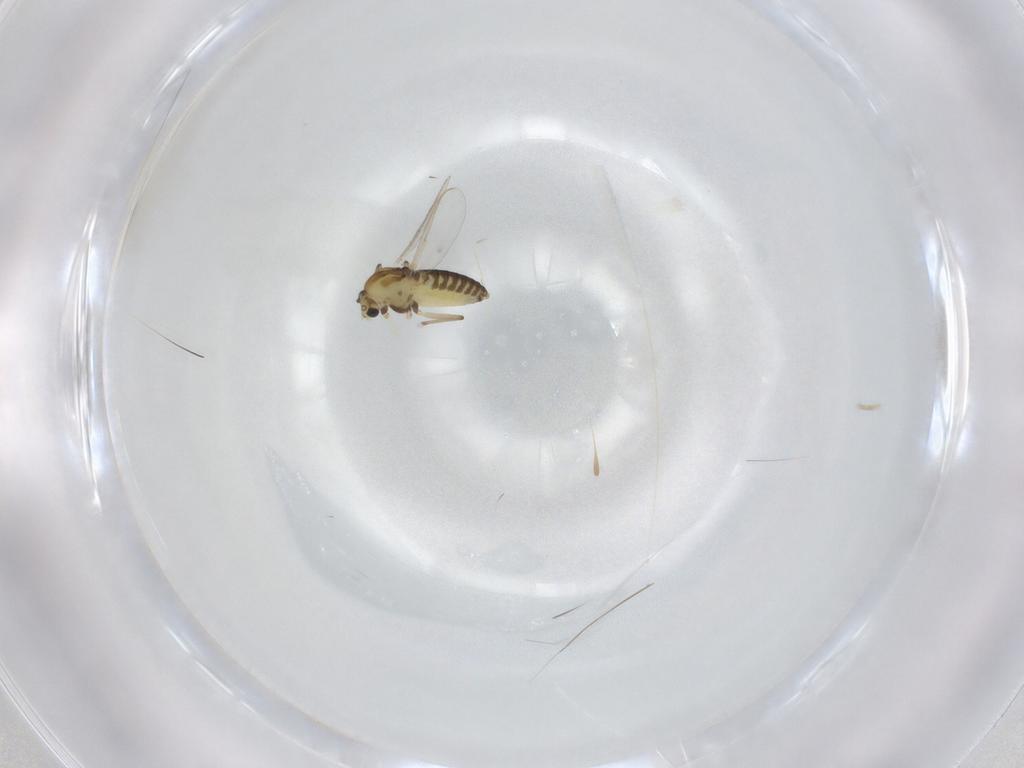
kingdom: Animalia
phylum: Arthropoda
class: Insecta
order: Diptera
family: Chironomidae
